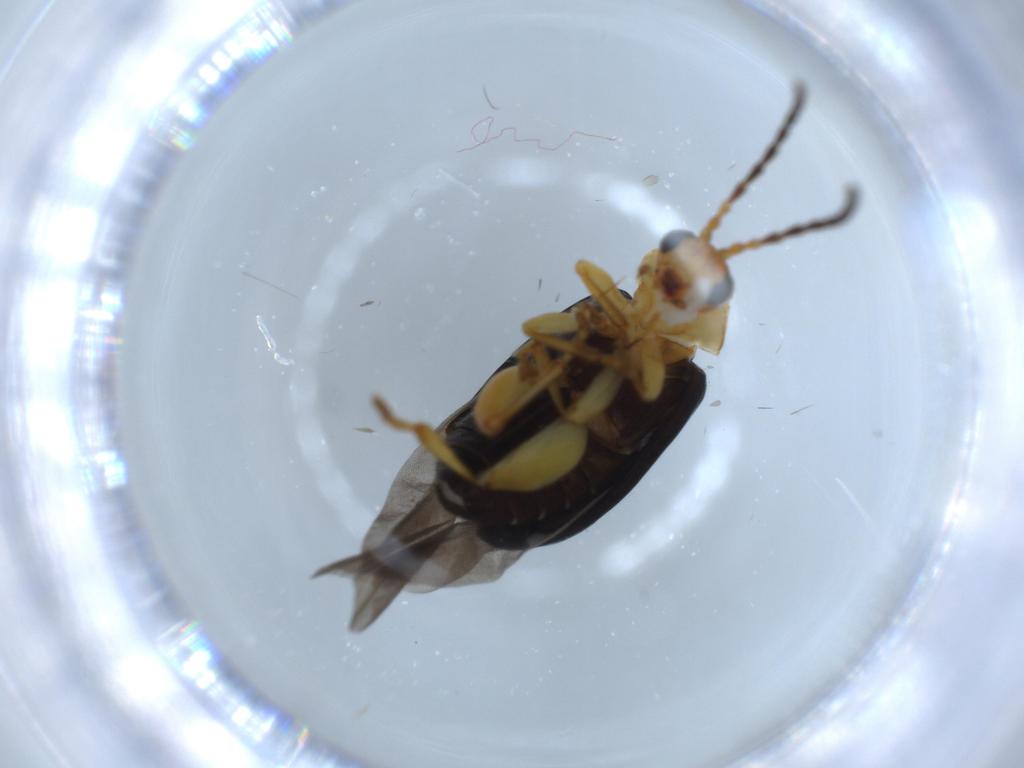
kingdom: Animalia
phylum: Arthropoda
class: Insecta
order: Coleoptera
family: Chrysomelidae
